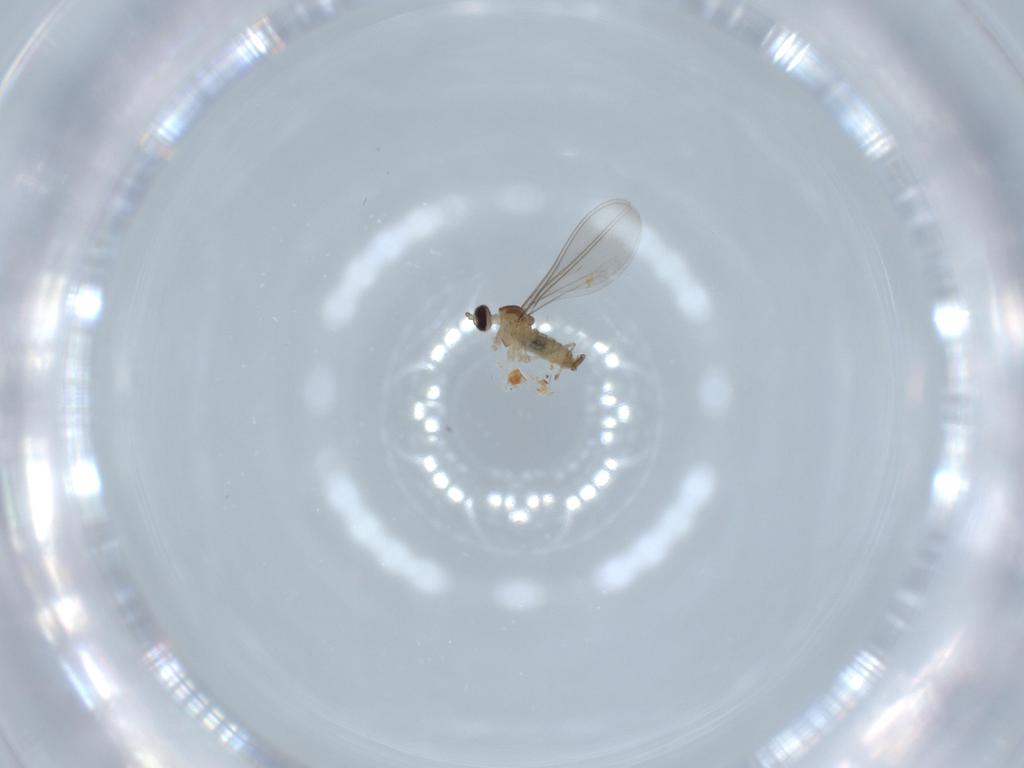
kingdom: Animalia
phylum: Arthropoda
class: Insecta
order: Diptera
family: Cecidomyiidae
